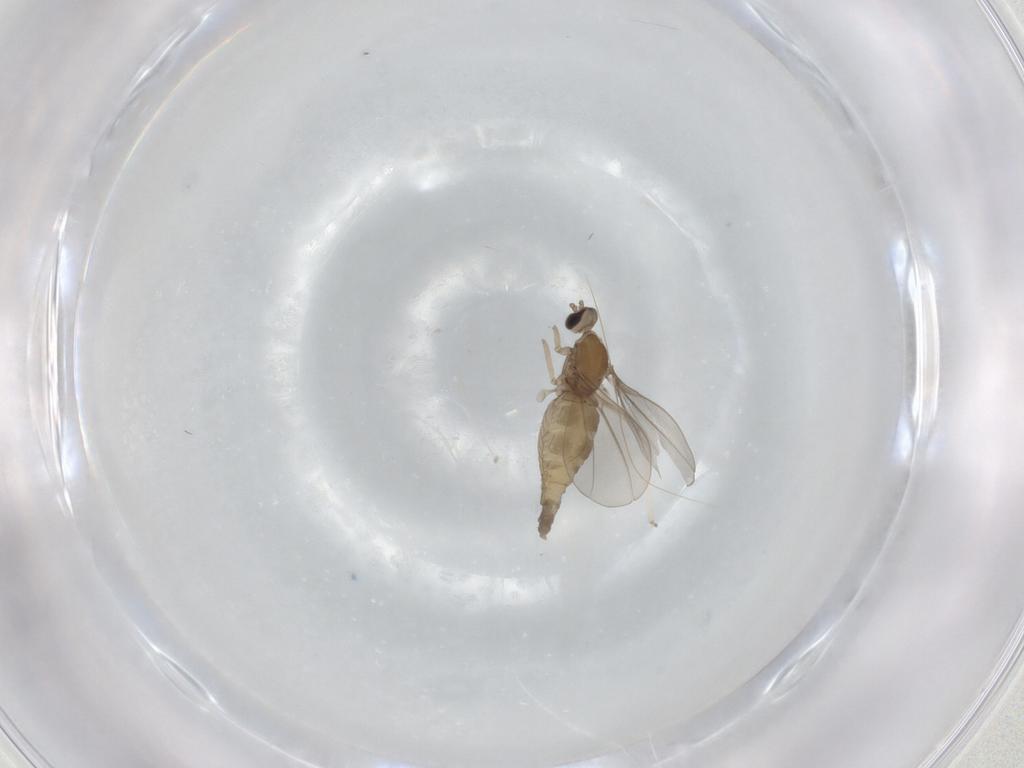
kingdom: Animalia
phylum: Arthropoda
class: Insecta
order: Diptera
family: Cecidomyiidae
